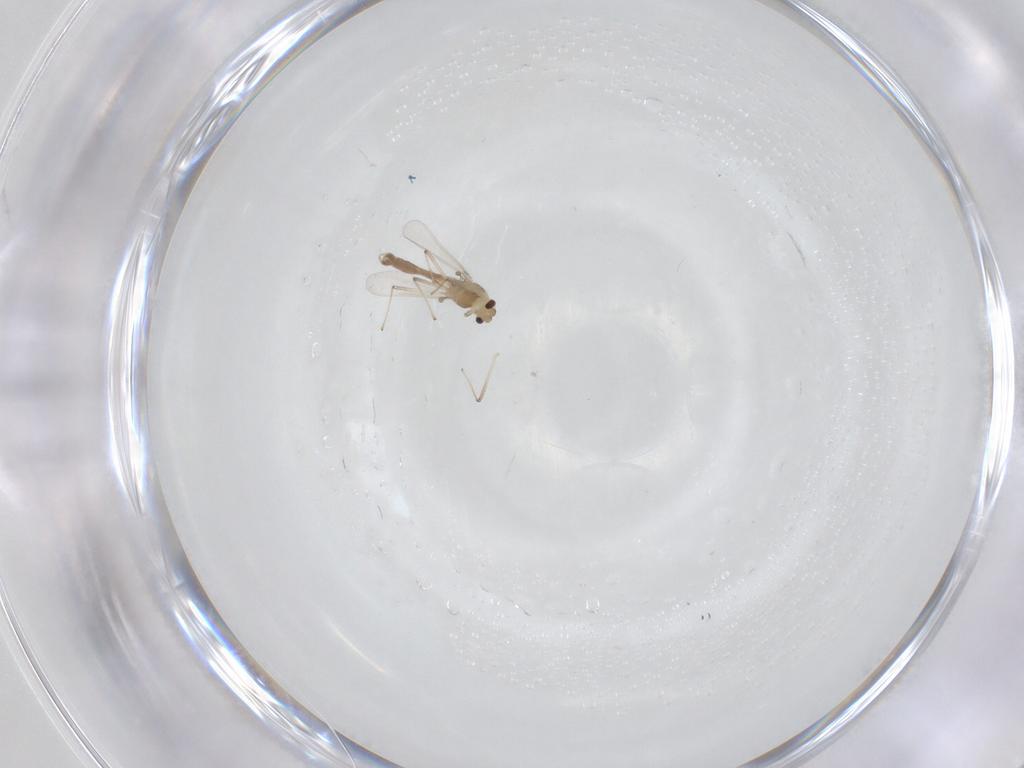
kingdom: Animalia
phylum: Arthropoda
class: Insecta
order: Diptera
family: Chironomidae
